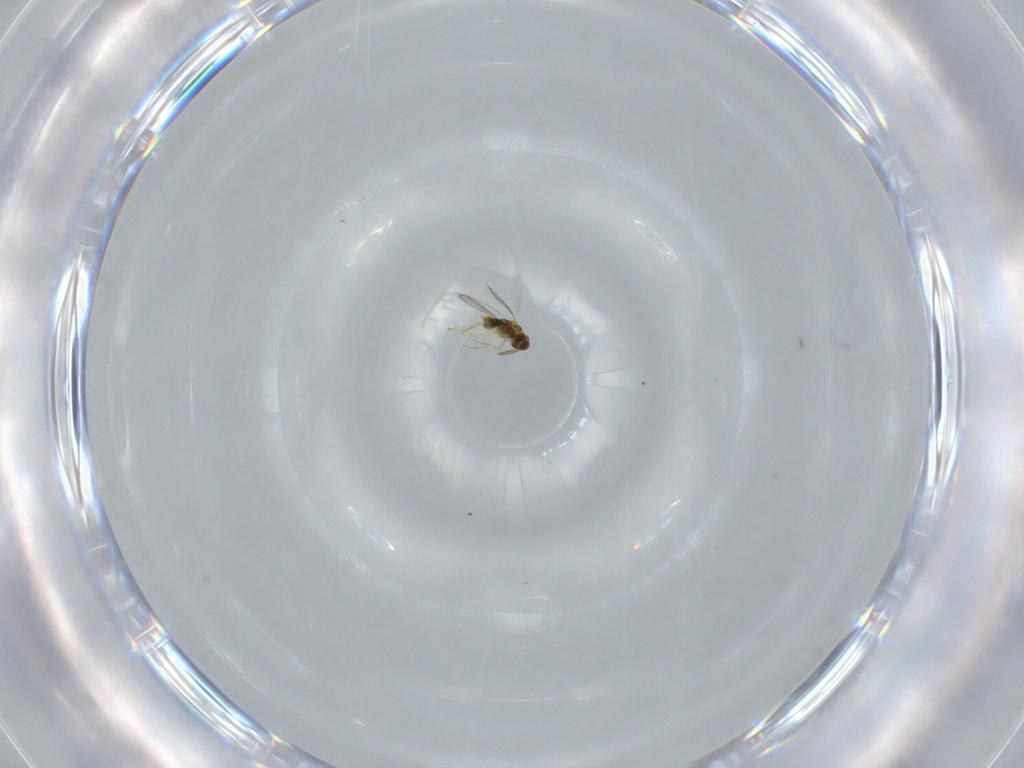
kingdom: Animalia
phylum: Arthropoda
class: Insecta
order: Hymenoptera
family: Aphelinidae
